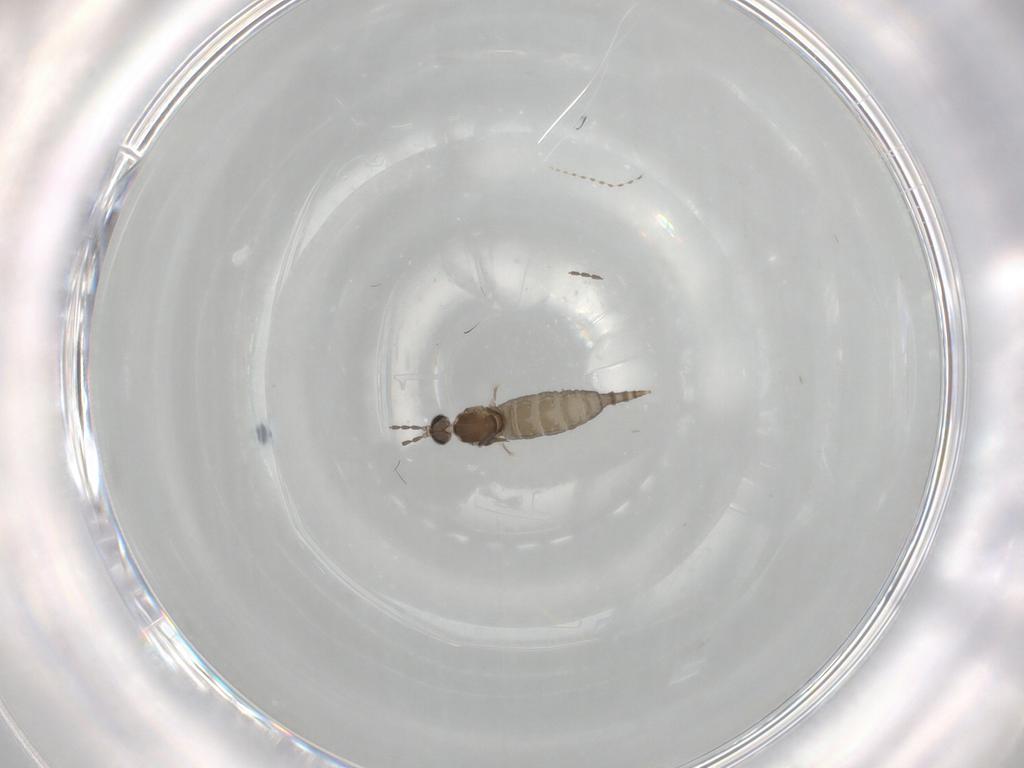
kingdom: Animalia
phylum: Arthropoda
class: Insecta
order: Diptera
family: Cecidomyiidae
